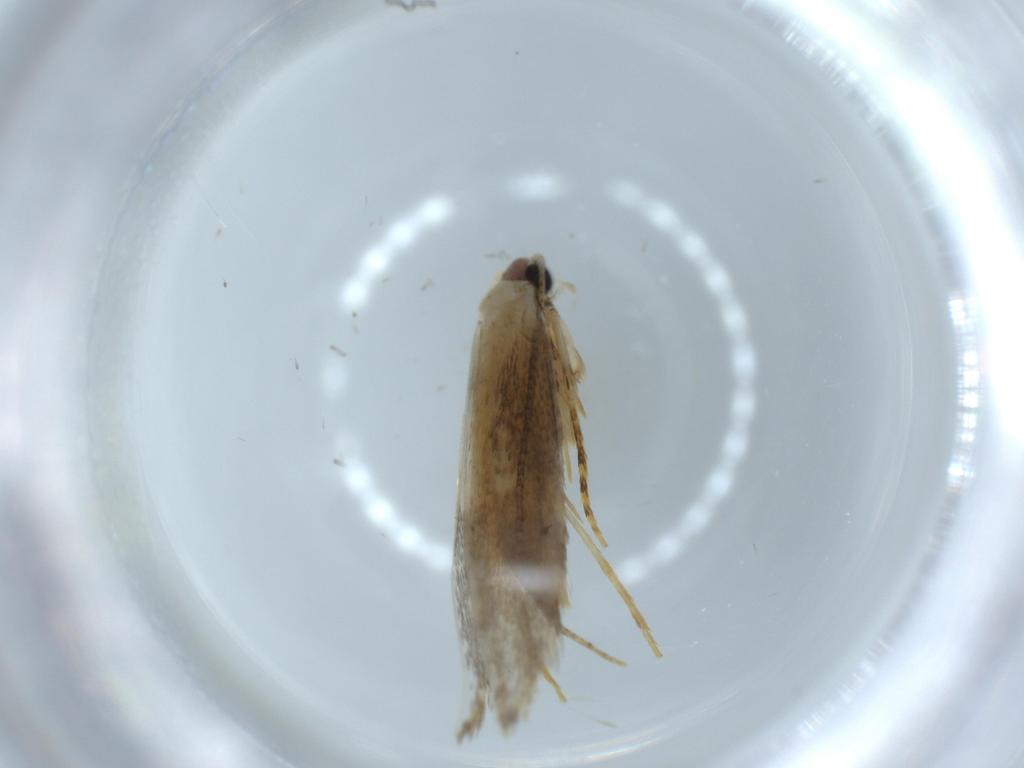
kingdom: Animalia
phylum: Arthropoda
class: Insecta
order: Lepidoptera
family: Tineidae
